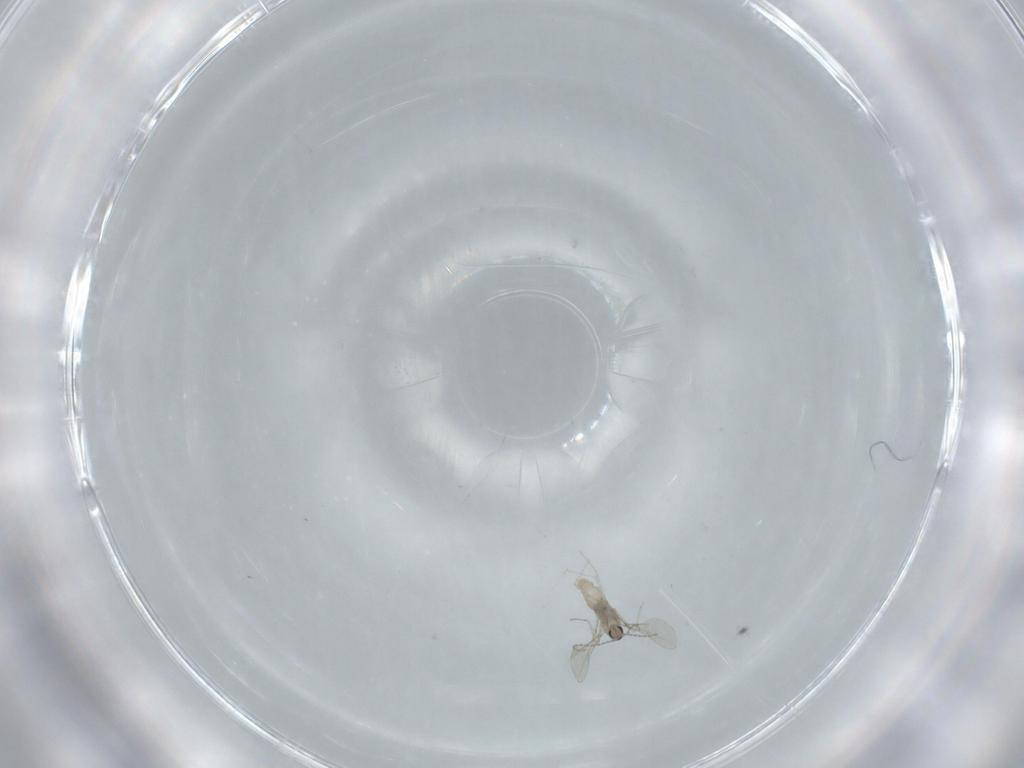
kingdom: Animalia
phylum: Arthropoda
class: Insecta
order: Diptera
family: Cecidomyiidae
